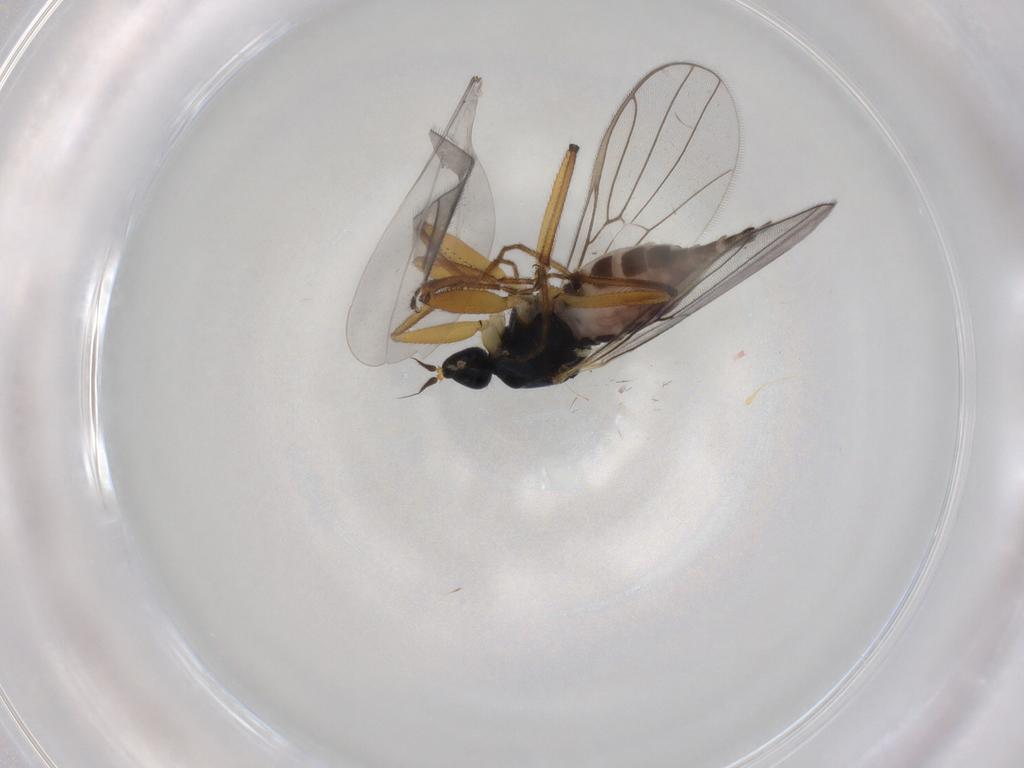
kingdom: Animalia
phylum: Arthropoda
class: Insecta
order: Diptera
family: Hybotidae
